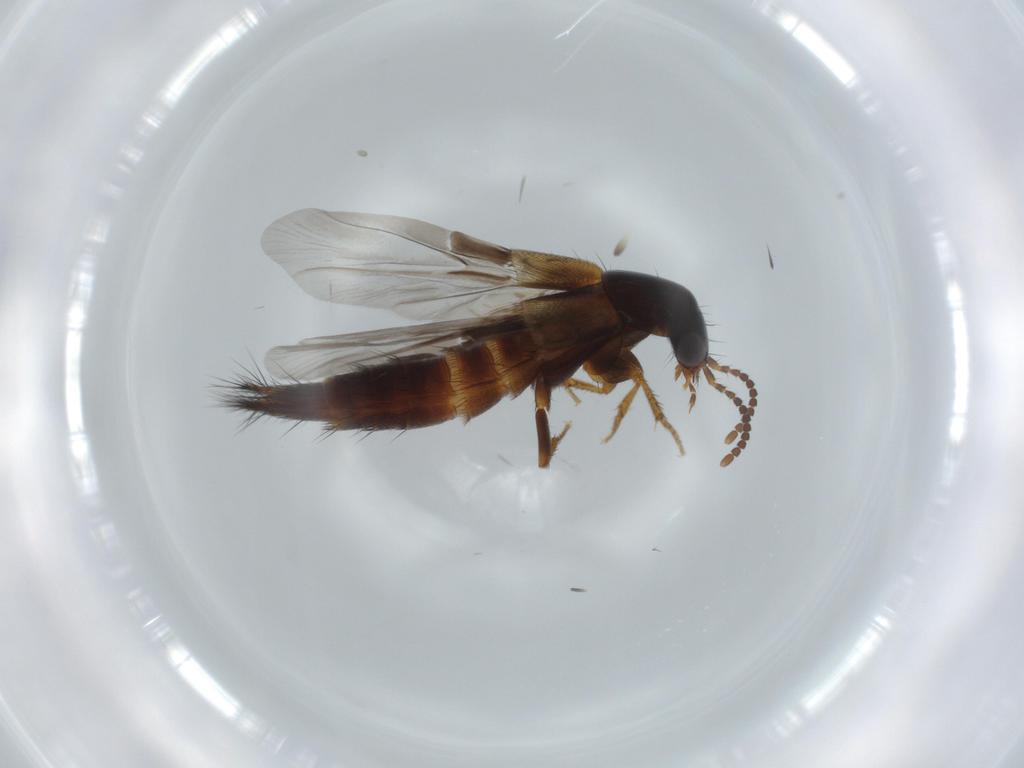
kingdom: Animalia
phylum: Arthropoda
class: Insecta
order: Coleoptera
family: Staphylinidae
